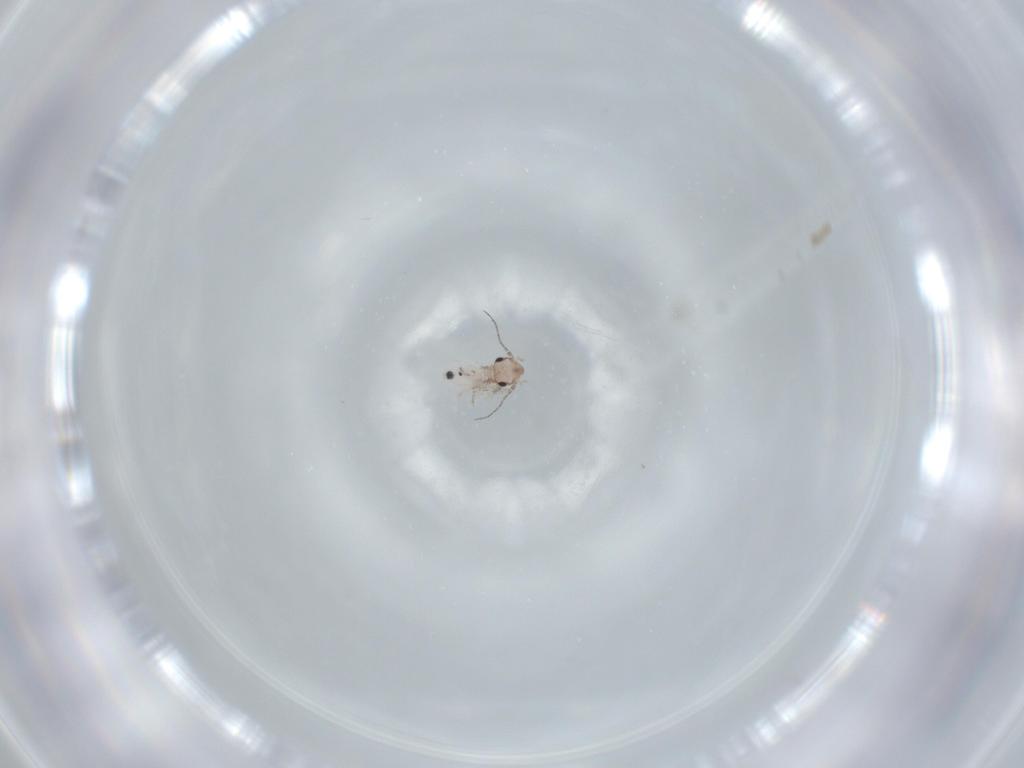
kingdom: Animalia
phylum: Arthropoda
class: Insecta
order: Psocodea
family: Lepidopsocidae
